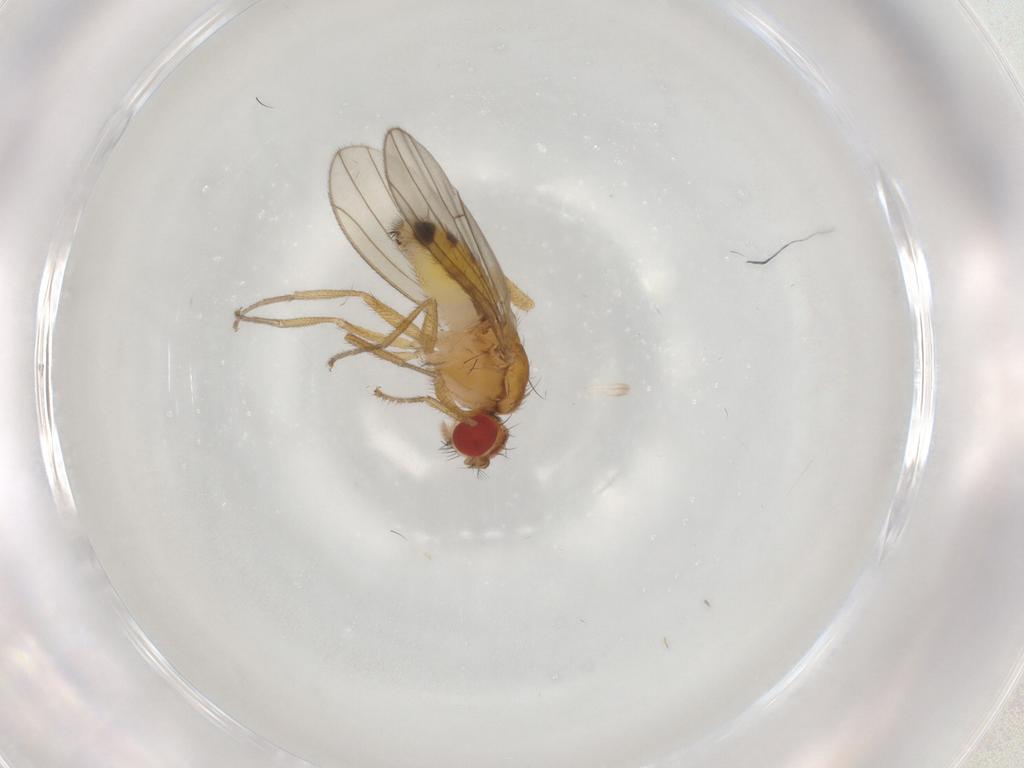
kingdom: Animalia
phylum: Arthropoda
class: Insecta
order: Diptera
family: Drosophilidae
